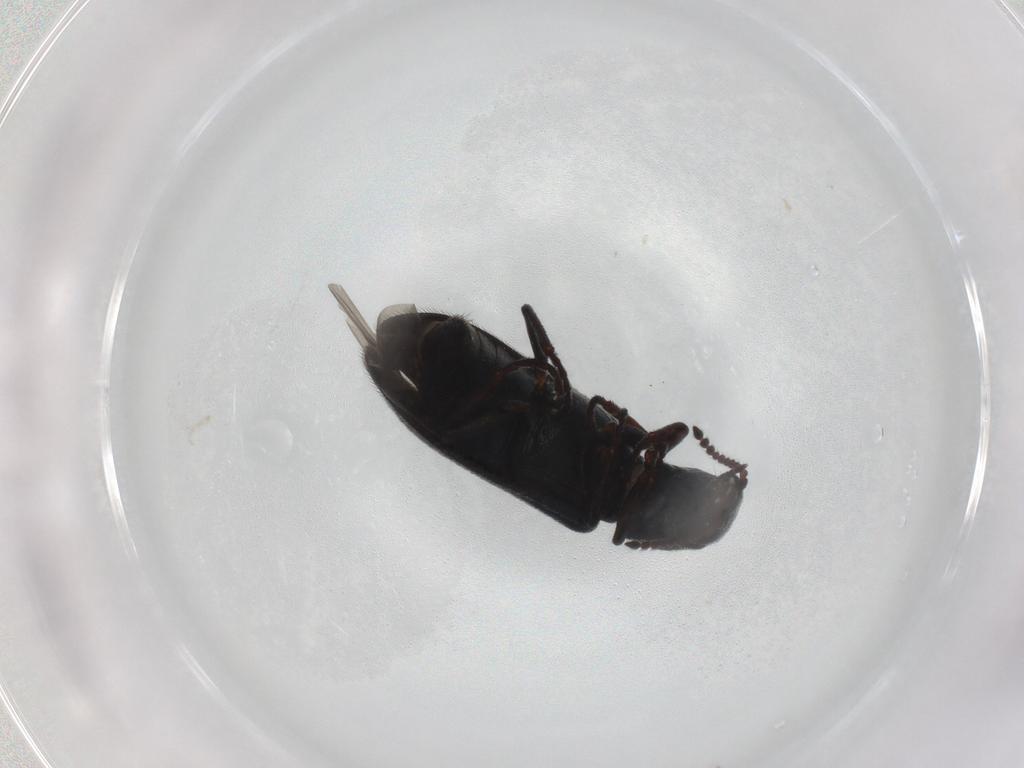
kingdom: Animalia
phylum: Arthropoda
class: Insecta
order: Coleoptera
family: Melyridae
